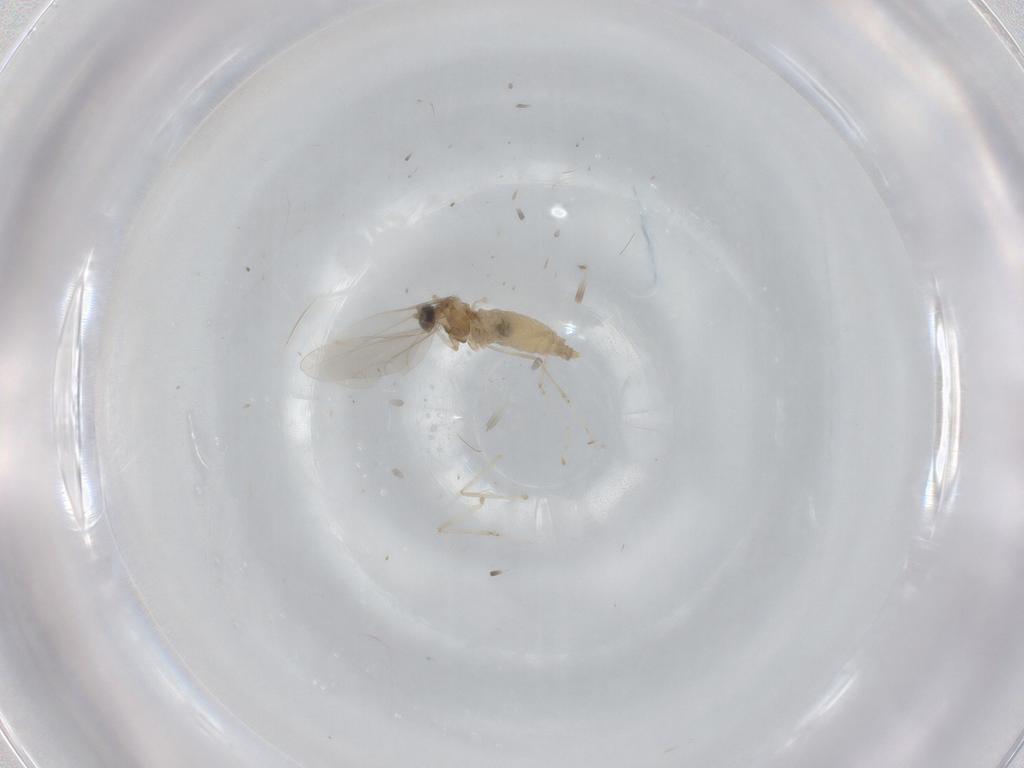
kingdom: Animalia
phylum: Arthropoda
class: Insecta
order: Diptera
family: Cecidomyiidae
